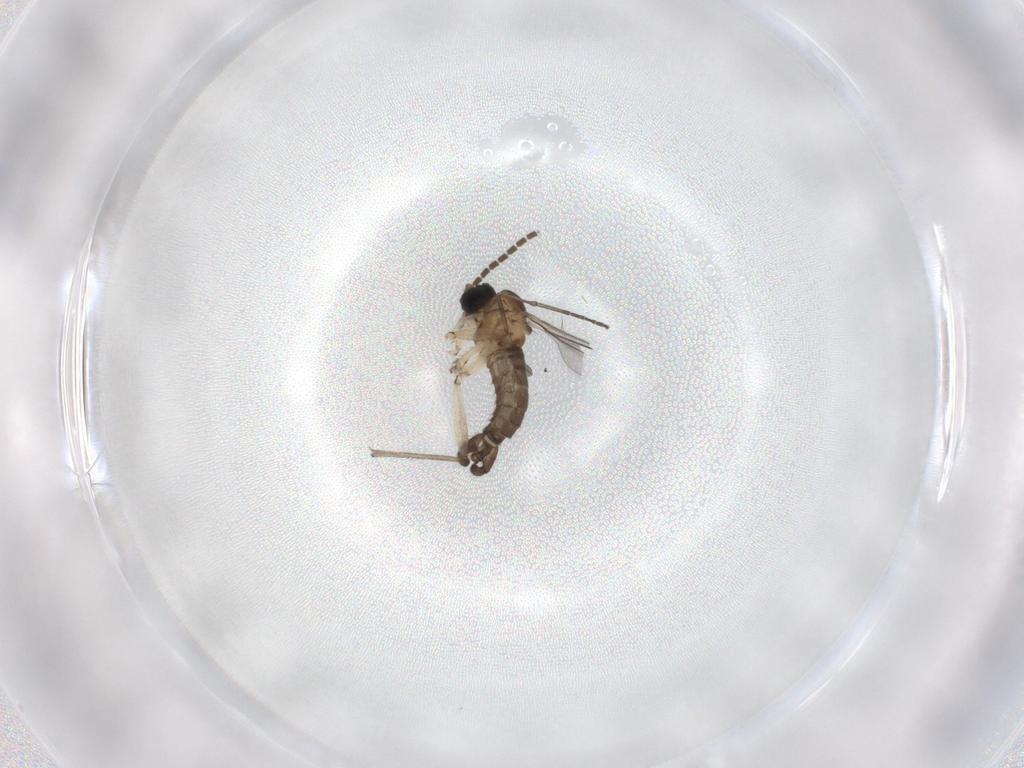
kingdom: Animalia
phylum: Arthropoda
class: Insecta
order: Diptera
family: Sciaridae
